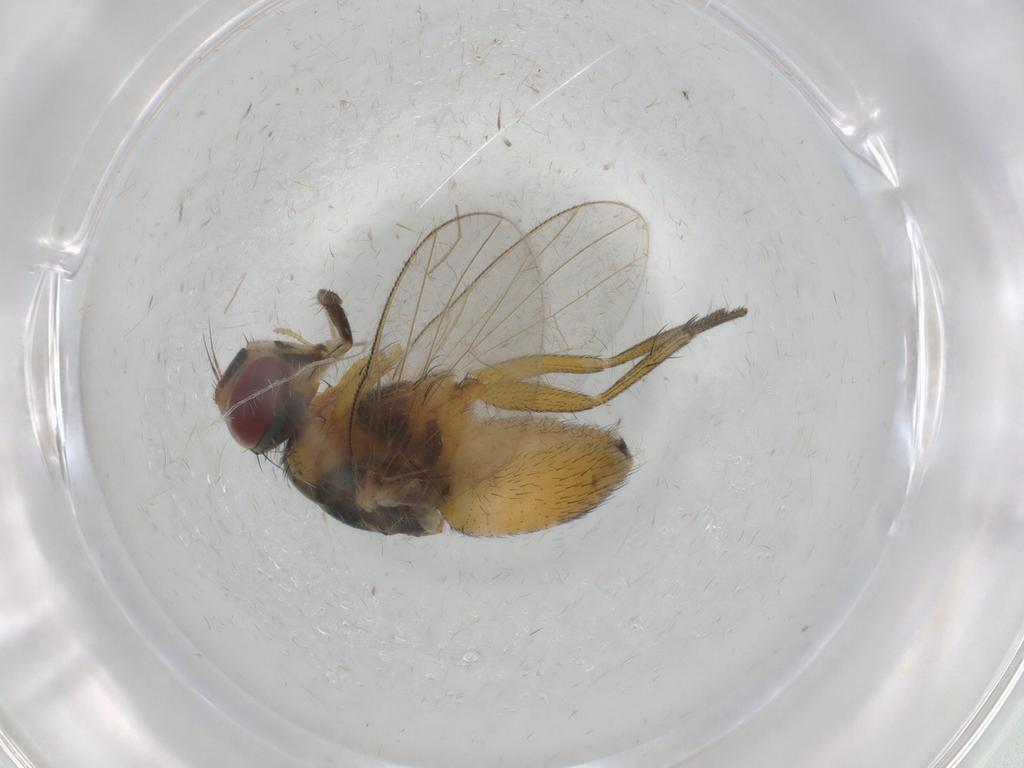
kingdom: Animalia
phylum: Arthropoda
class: Insecta
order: Diptera
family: Muscidae
